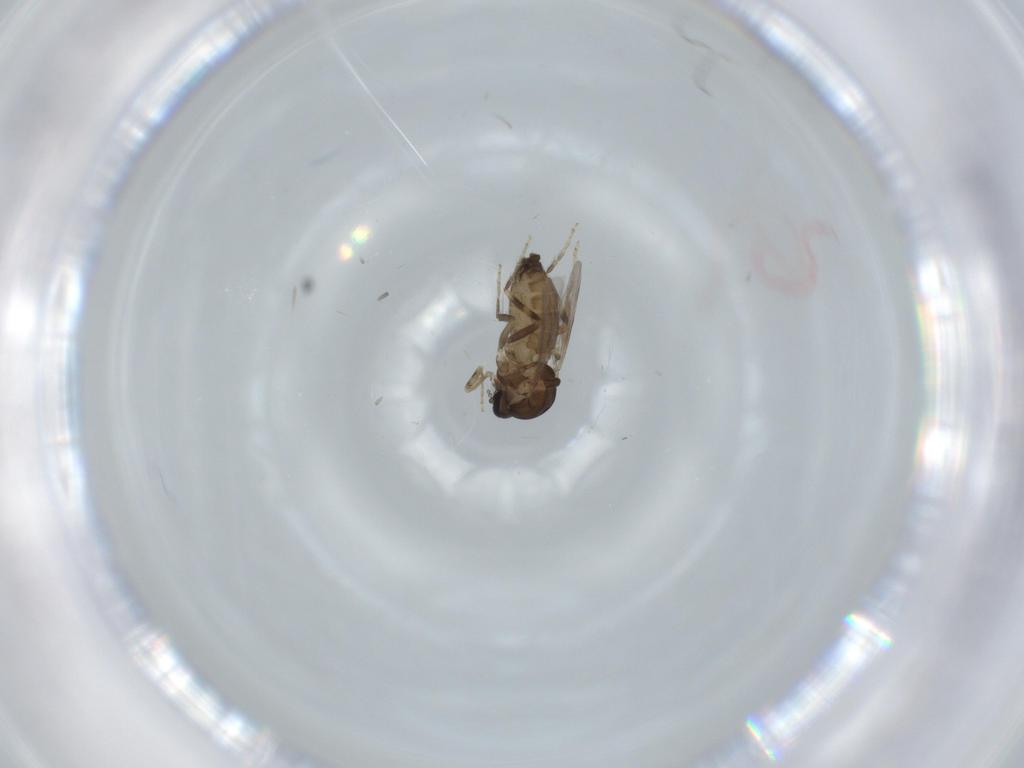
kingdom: Animalia
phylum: Arthropoda
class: Insecta
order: Diptera
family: Ceratopogonidae
